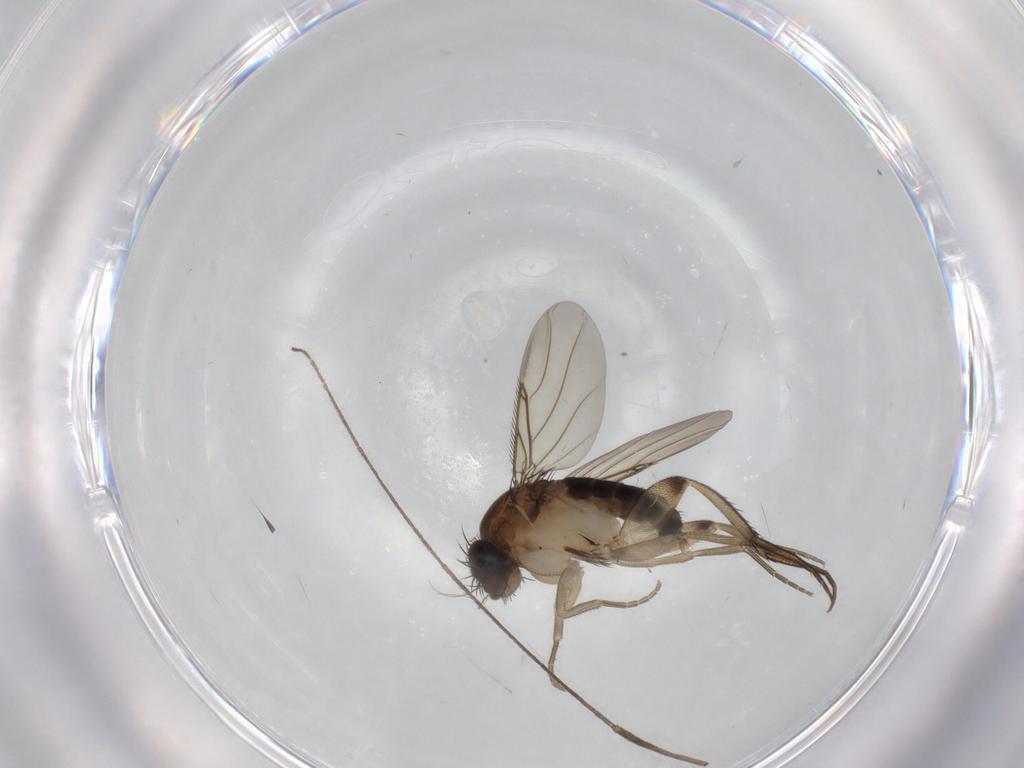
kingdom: Animalia
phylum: Arthropoda
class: Insecta
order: Diptera
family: Phoridae
